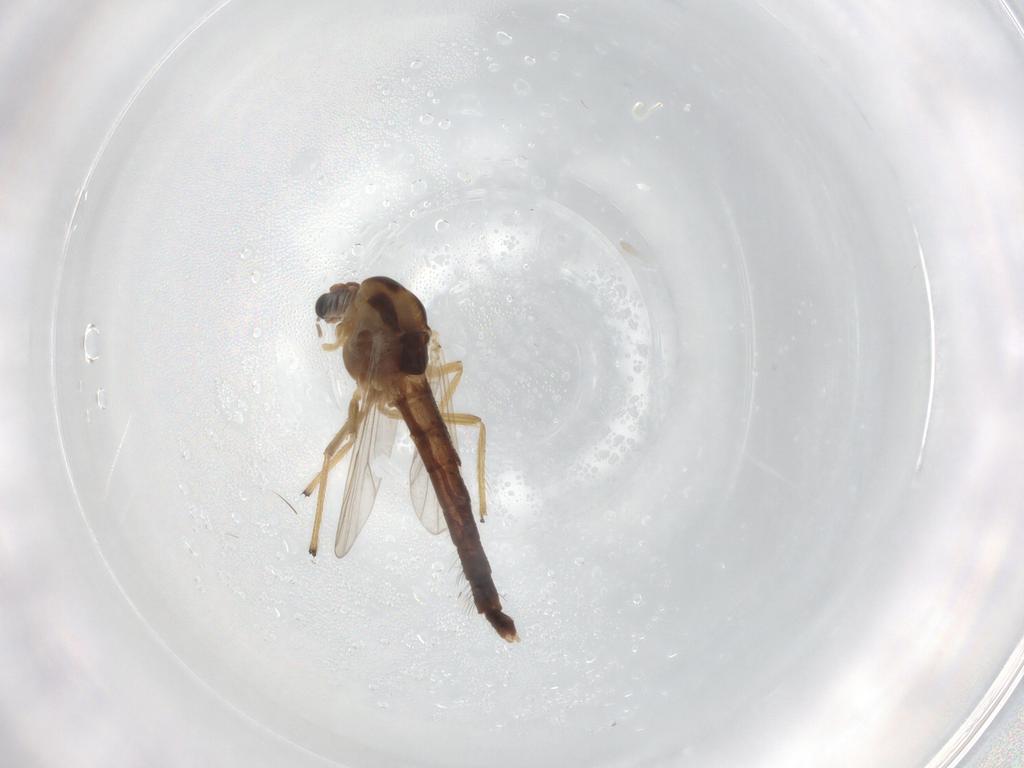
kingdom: Animalia
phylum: Arthropoda
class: Insecta
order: Diptera
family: Chironomidae
